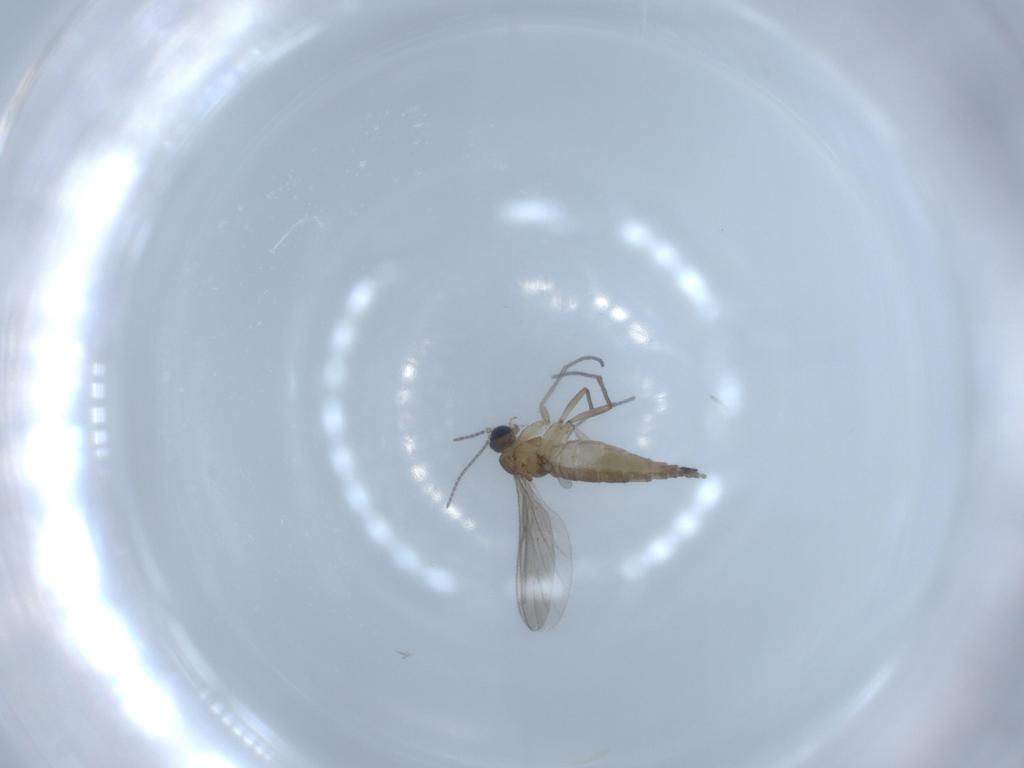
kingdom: Animalia
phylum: Arthropoda
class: Insecta
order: Diptera
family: Sciaridae
